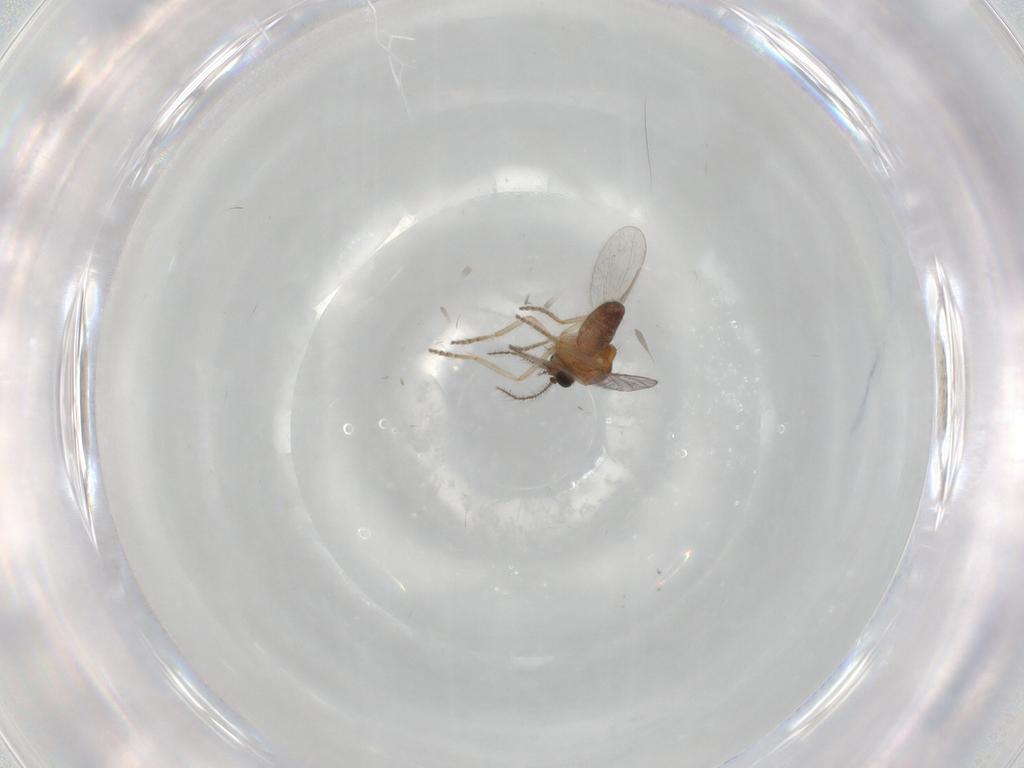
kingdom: Animalia
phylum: Arthropoda
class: Insecta
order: Diptera
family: Ceratopogonidae
